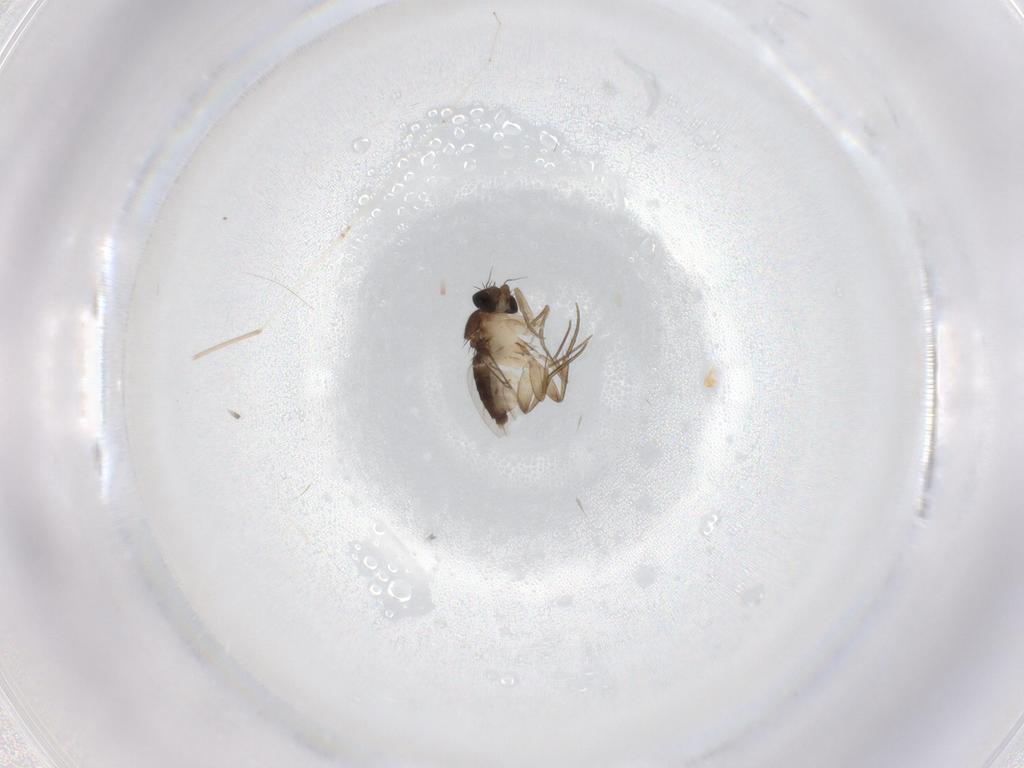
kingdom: Animalia
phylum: Arthropoda
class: Insecta
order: Diptera
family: Phoridae
